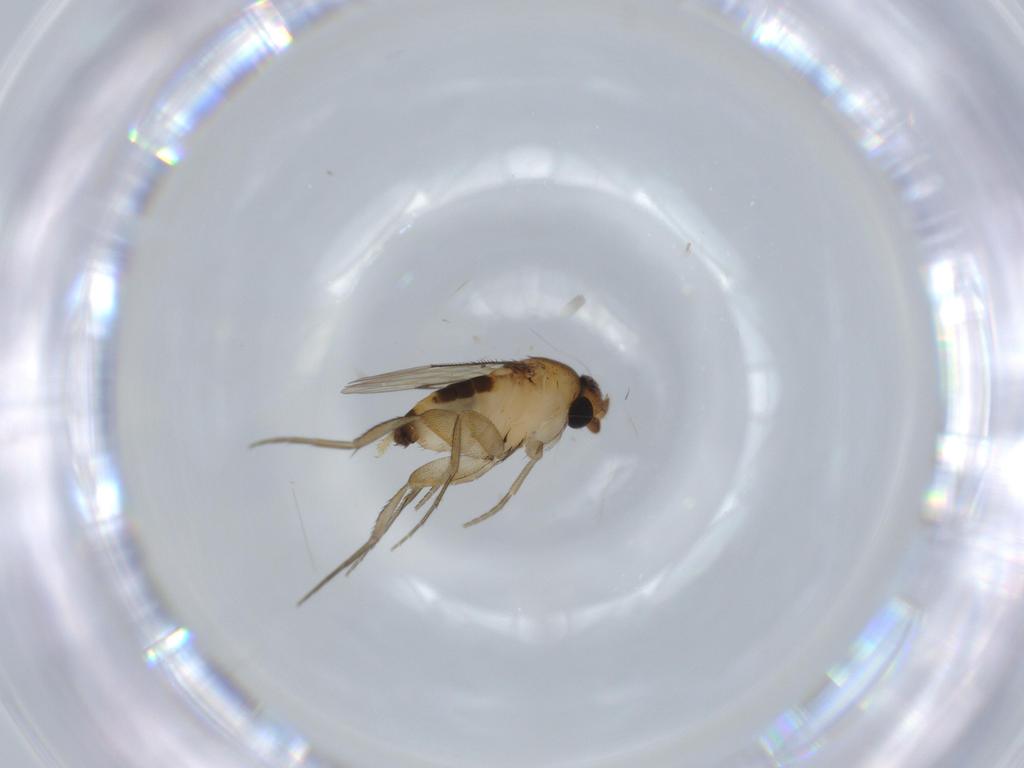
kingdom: Animalia
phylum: Arthropoda
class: Insecta
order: Diptera
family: Phoridae
